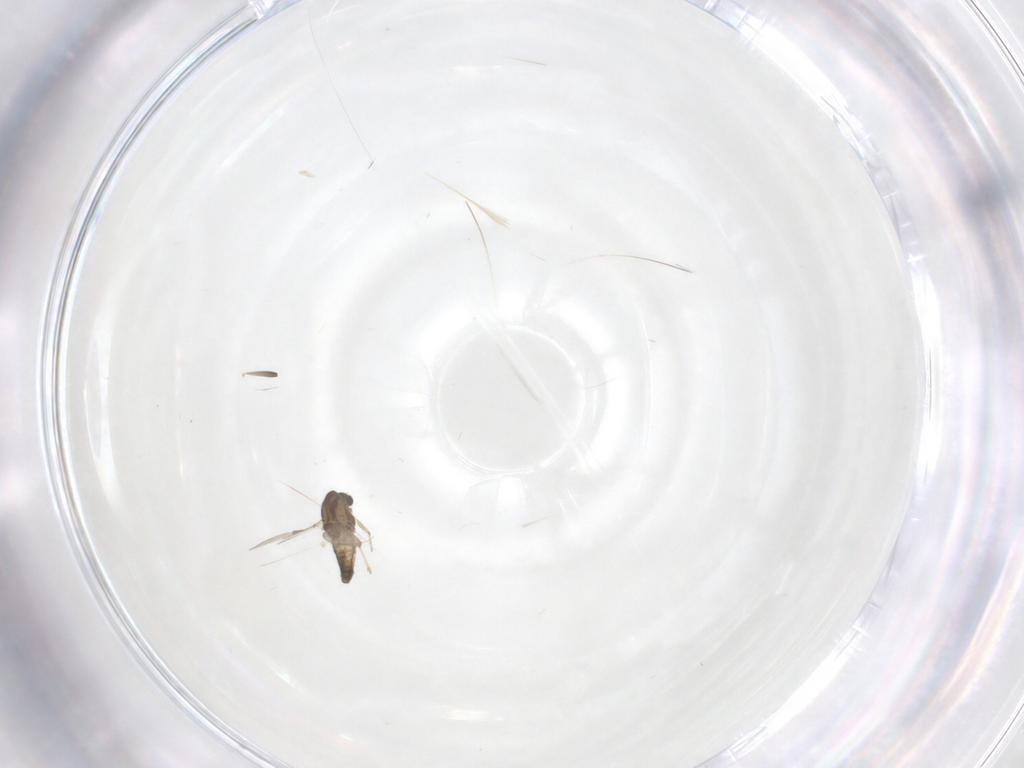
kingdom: Animalia
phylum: Arthropoda
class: Insecta
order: Diptera
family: Chironomidae
